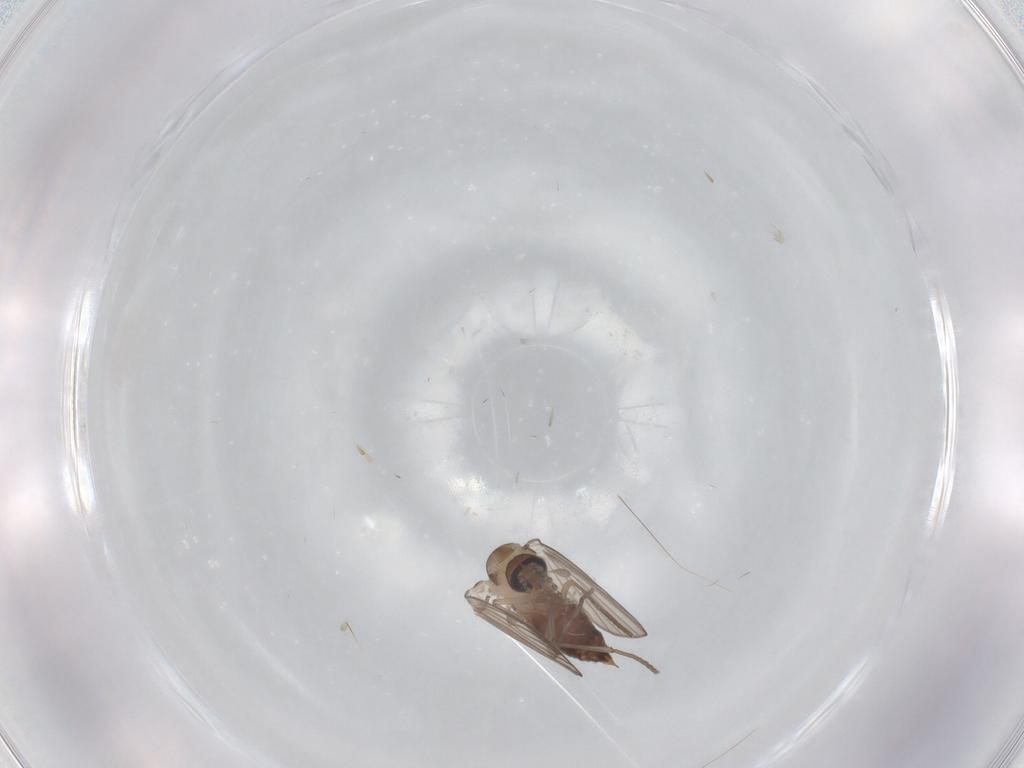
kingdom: Animalia
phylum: Arthropoda
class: Insecta
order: Diptera
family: Psychodidae
